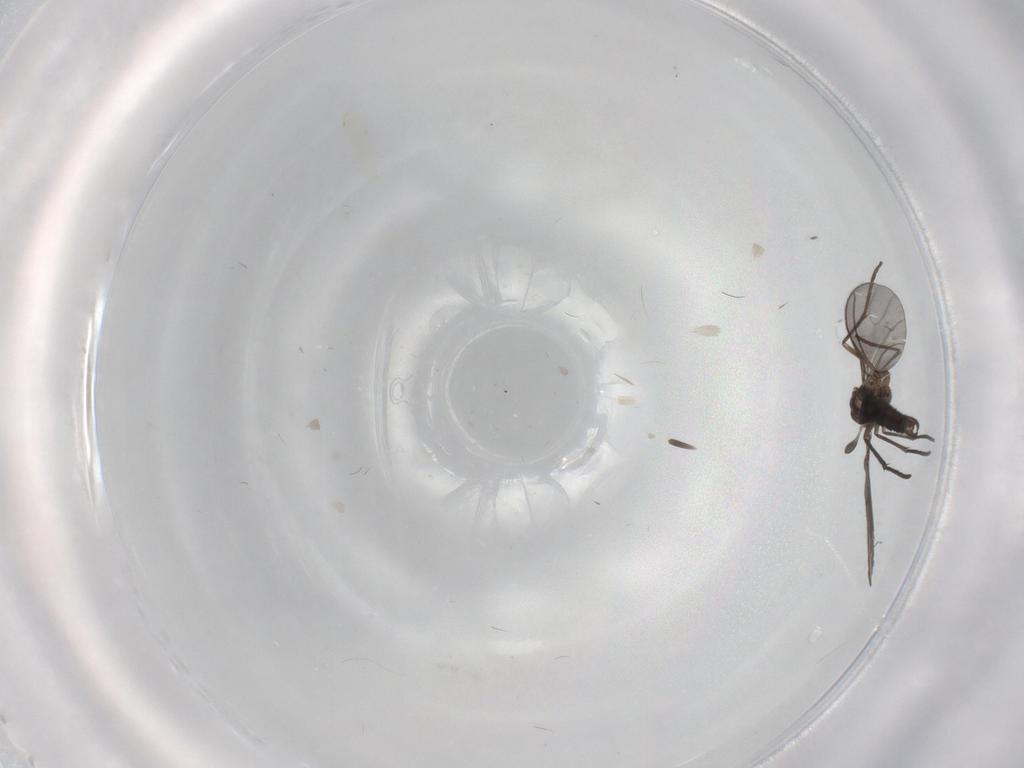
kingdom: Animalia
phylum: Arthropoda
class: Insecta
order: Diptera
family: Sciaridae
